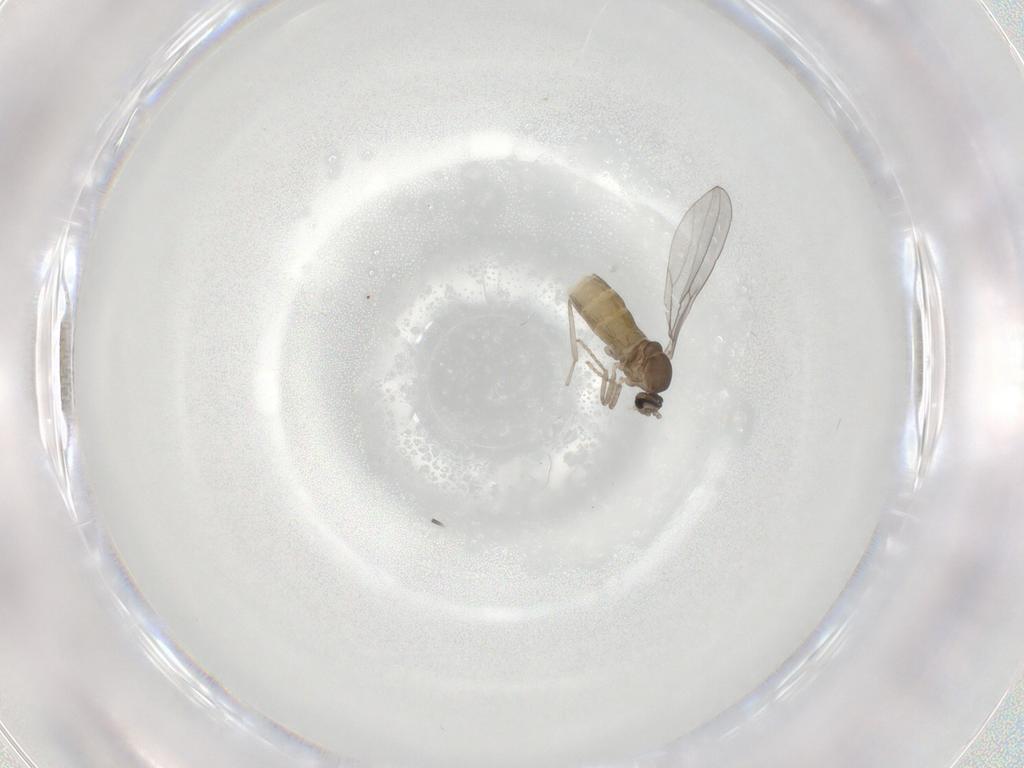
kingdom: Animalia
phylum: Arthropoda
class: Insecta
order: Diptera
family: Cecidomyiidae
